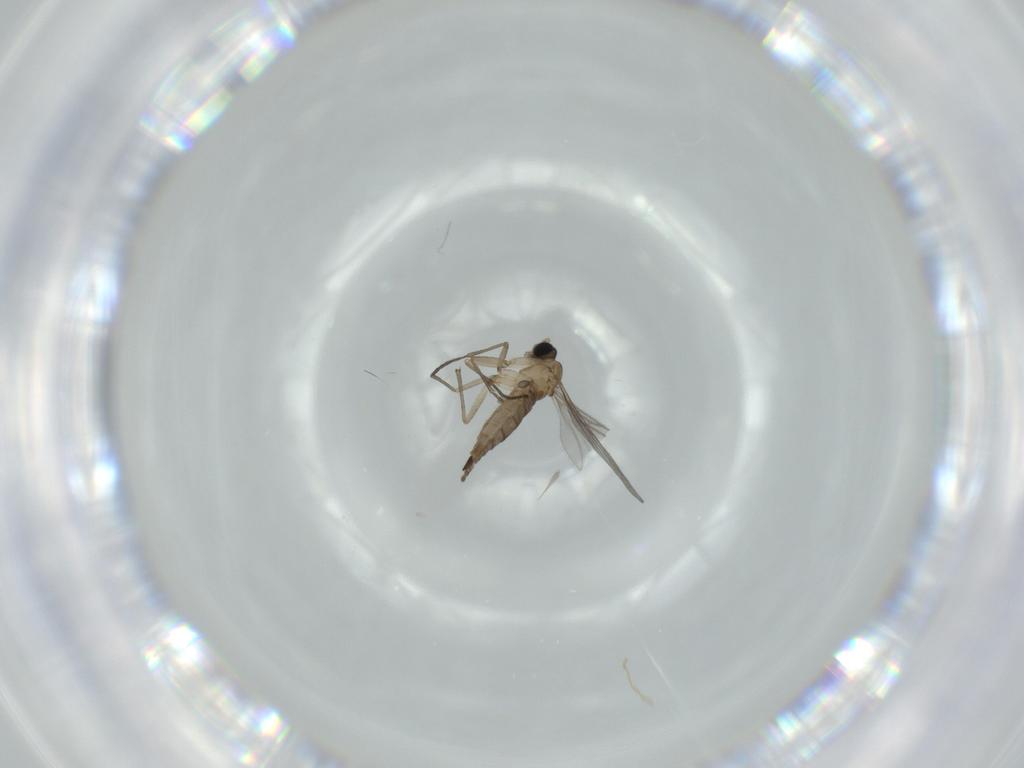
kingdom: Animalia
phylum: Arthropoda
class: Insecta
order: Diptera
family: Sciaridae
